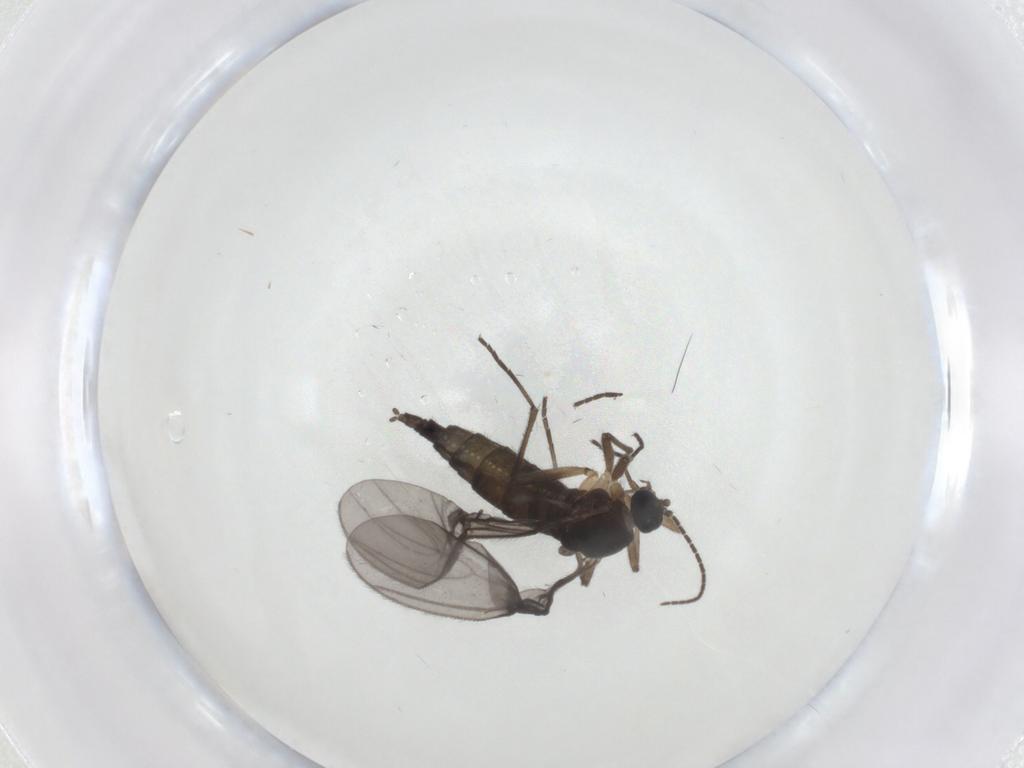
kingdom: Animalia
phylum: Arthropoda
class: Insecta
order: Diptera
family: Sciaridae
